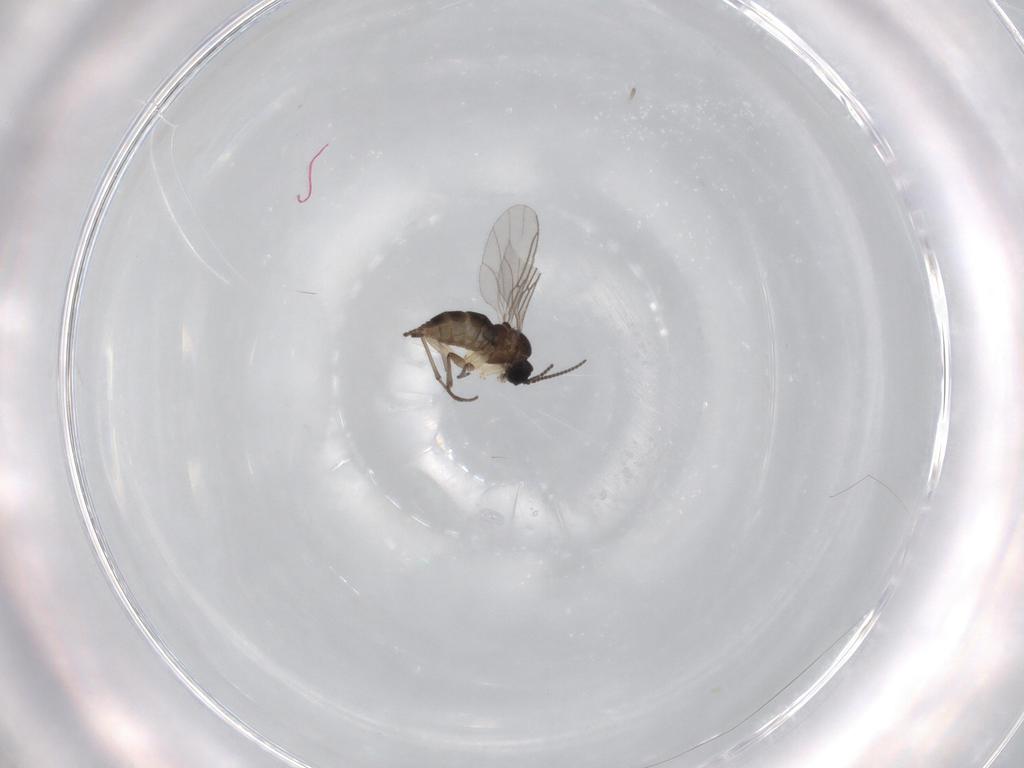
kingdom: Animalia
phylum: Arthropoda
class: Insecta
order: Diptera
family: Sciaridae
